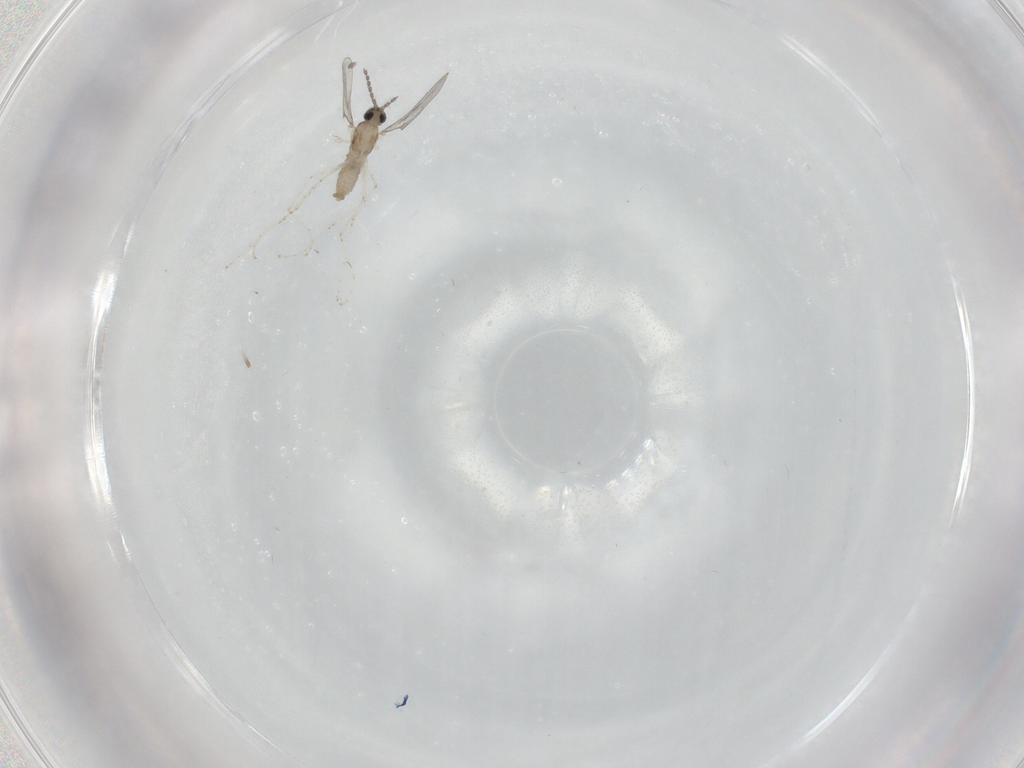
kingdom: Animalia
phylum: Arthropoda
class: Insecta
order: Diptera
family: Cecidomyiidae
